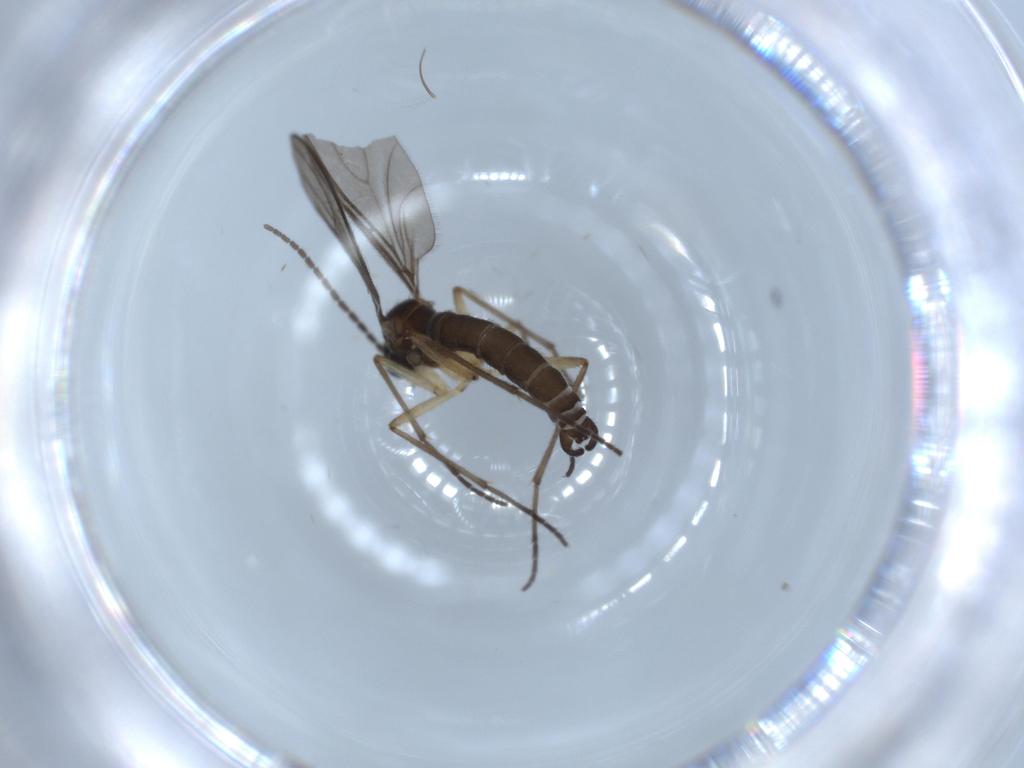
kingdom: Animalia
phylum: Arthropoda
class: Insecta
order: Diptera
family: Sciaridae
